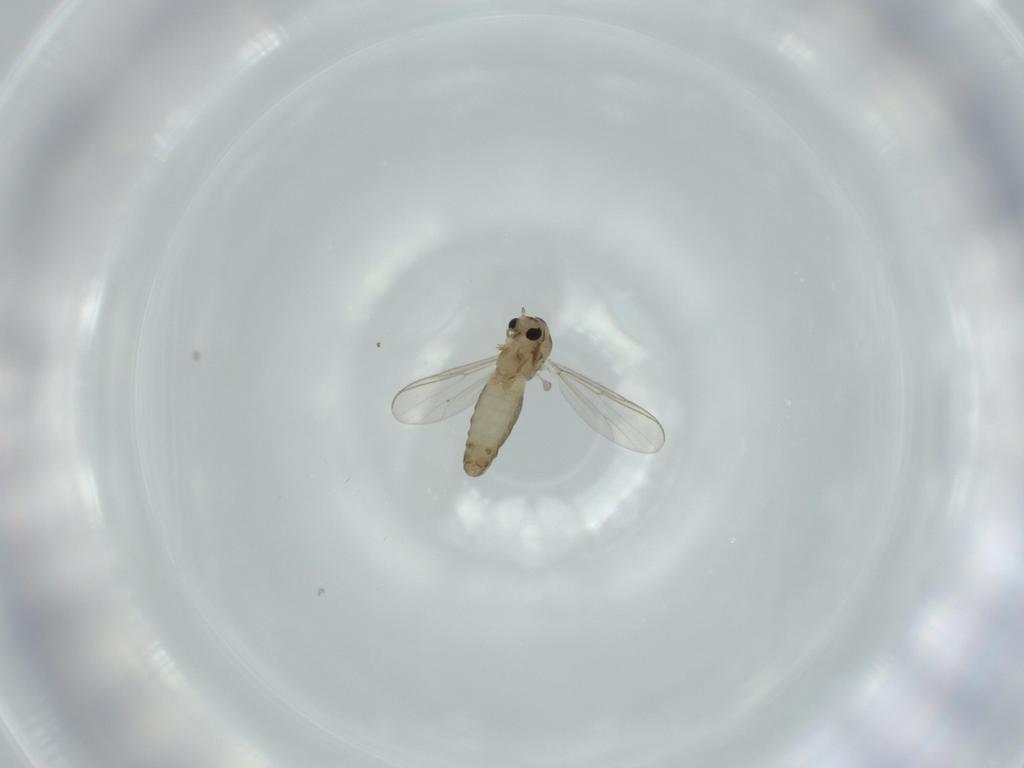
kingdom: Animalia
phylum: Arthropoda
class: Insecta
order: Diptera
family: Chironomidae
